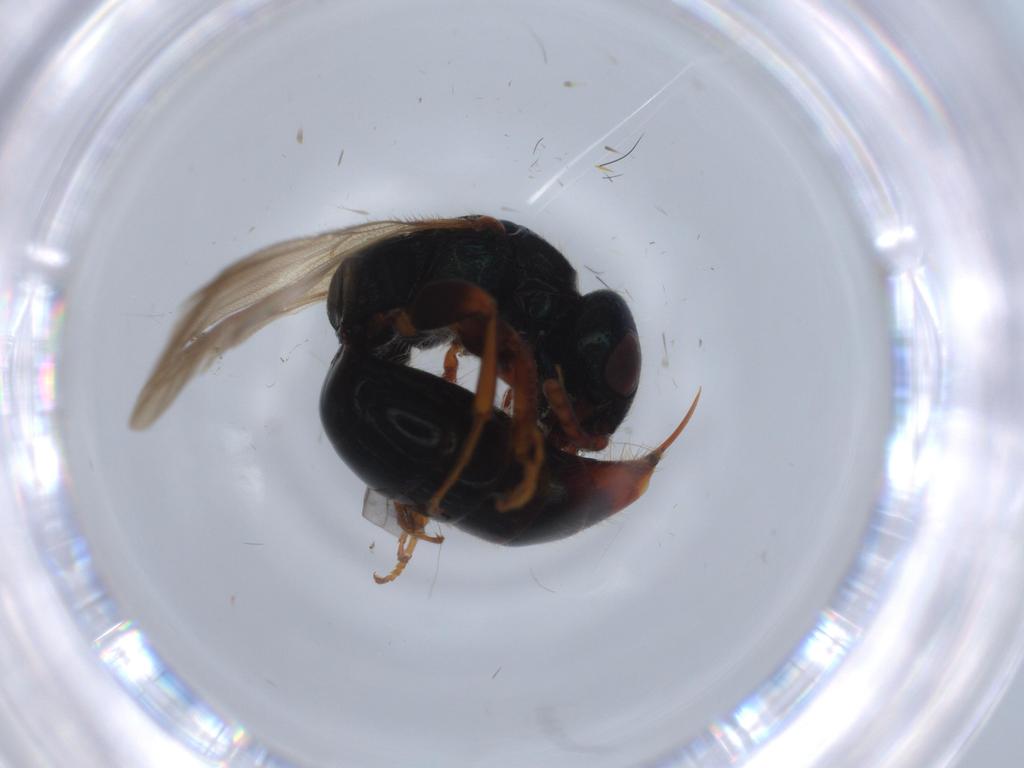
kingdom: Animalia
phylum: Arthropoda
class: Insecta
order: Hymenoptera
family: Bethylidae
